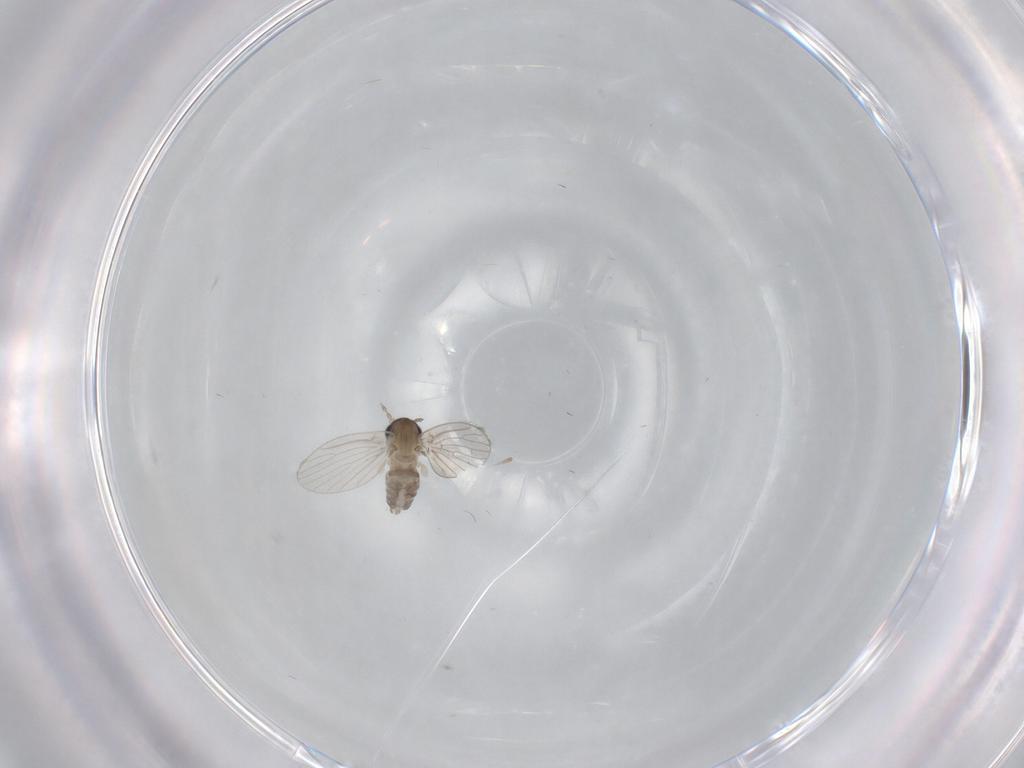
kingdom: Animalia
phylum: Arthropoda
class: Insecta
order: Diptera
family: Psychodidae
